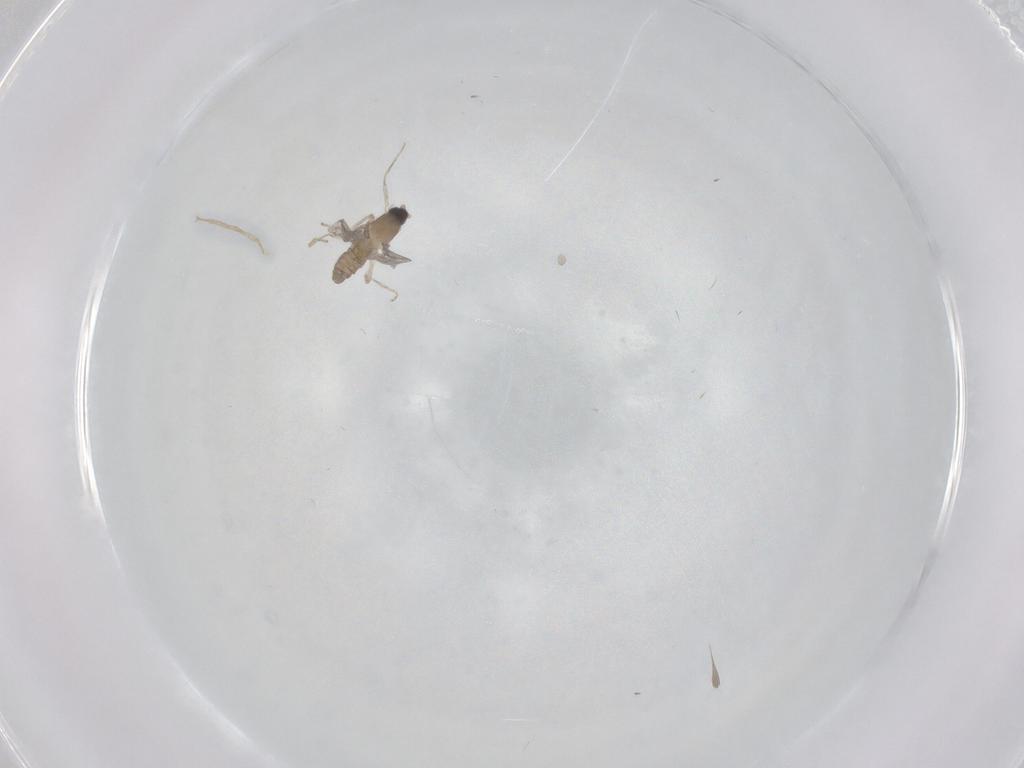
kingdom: Animalia
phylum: Arthropoda
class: Insecta
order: Diptera
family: Cecidomyiidae
